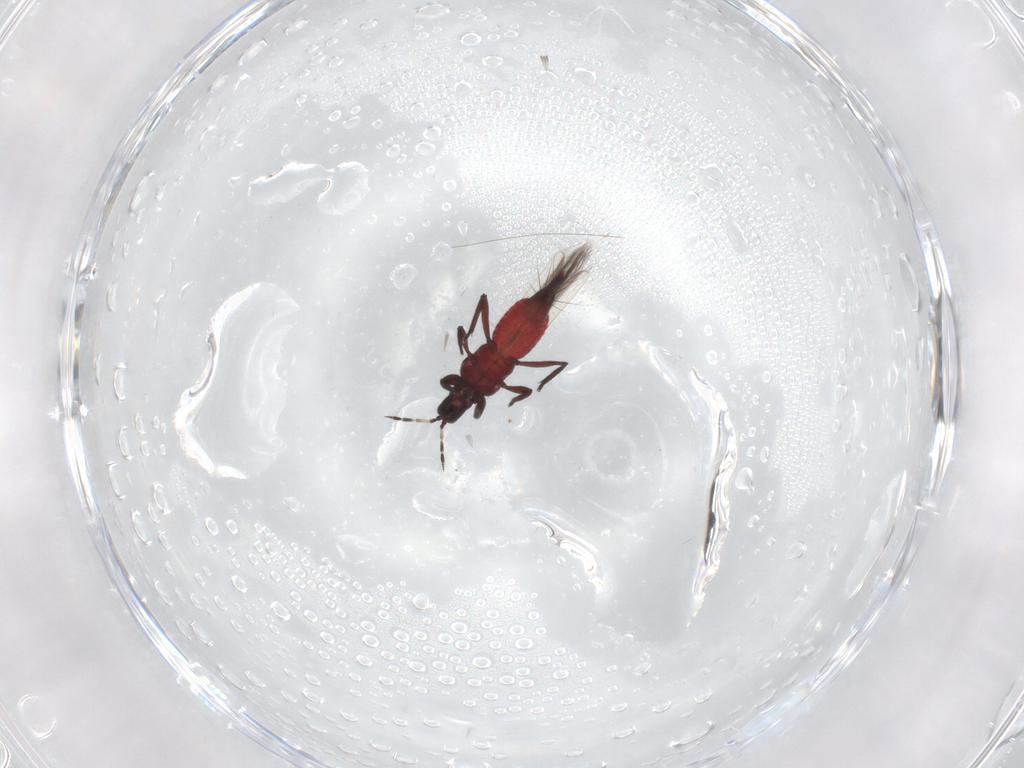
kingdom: Animalia
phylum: Arthropoda
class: Insecta
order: Thysanoptera
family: Aeolothripidae
